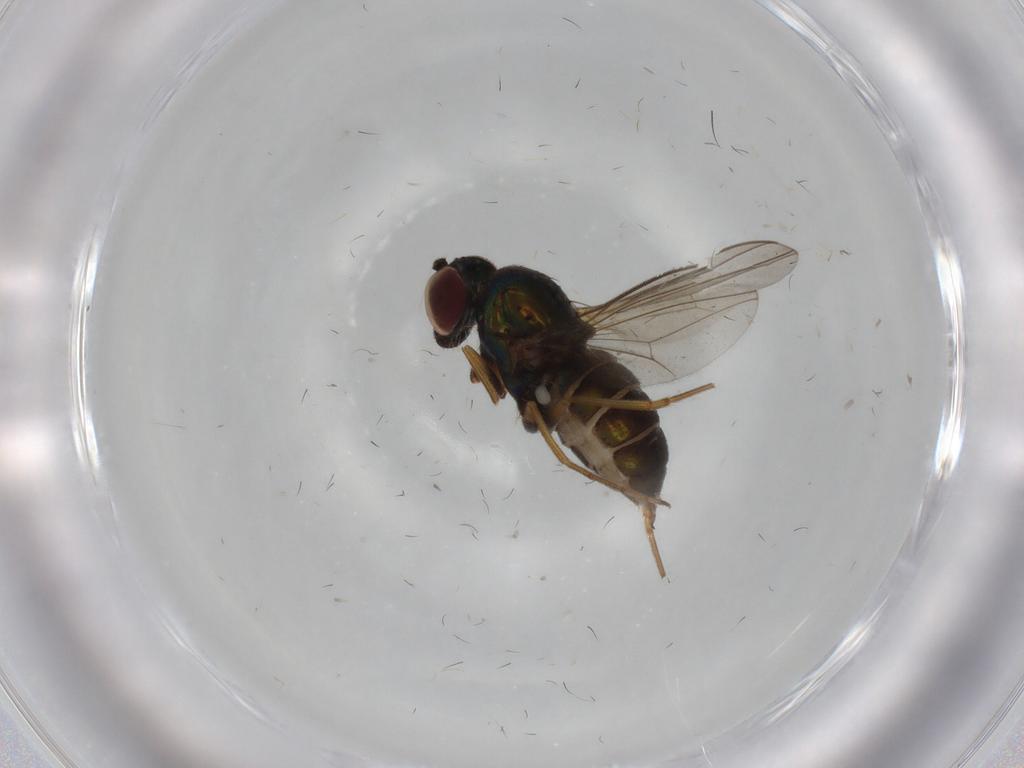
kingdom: Animalia
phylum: Arthropoda
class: Insecta
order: Diptera
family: Dolichopodidae
